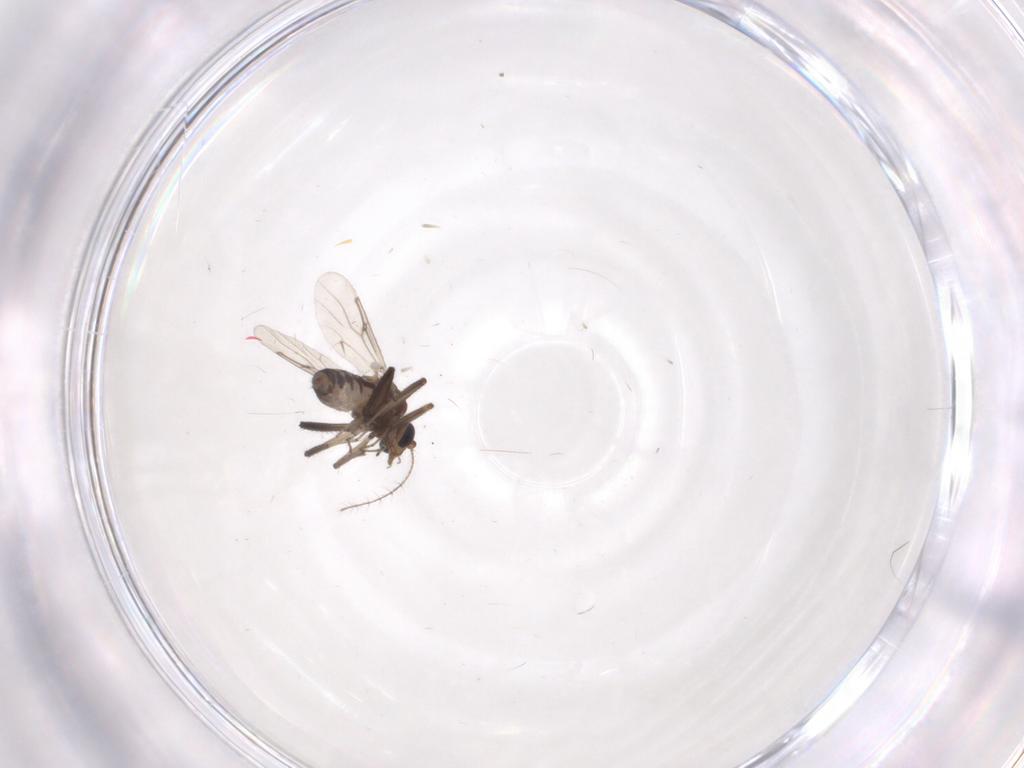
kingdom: Animalia
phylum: Arthropoda
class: Insecta
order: Diptera
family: Ceratopogonidae
